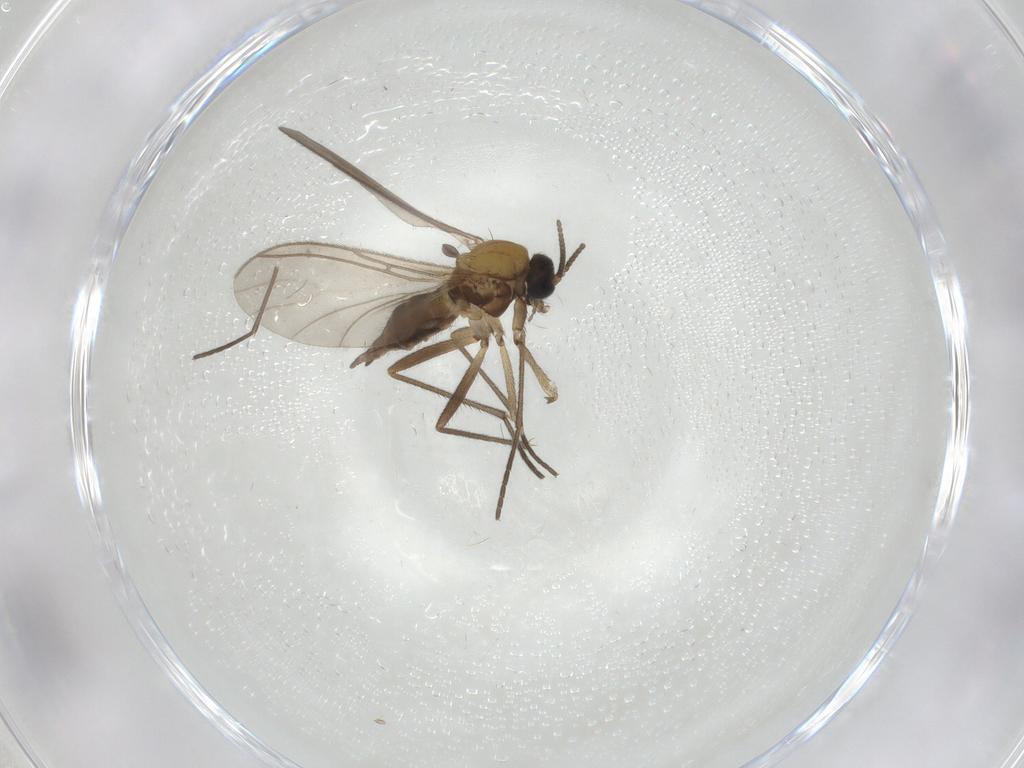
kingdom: Animalia
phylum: Arthropoda
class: Insecta
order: Diptera
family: Sciaridae
